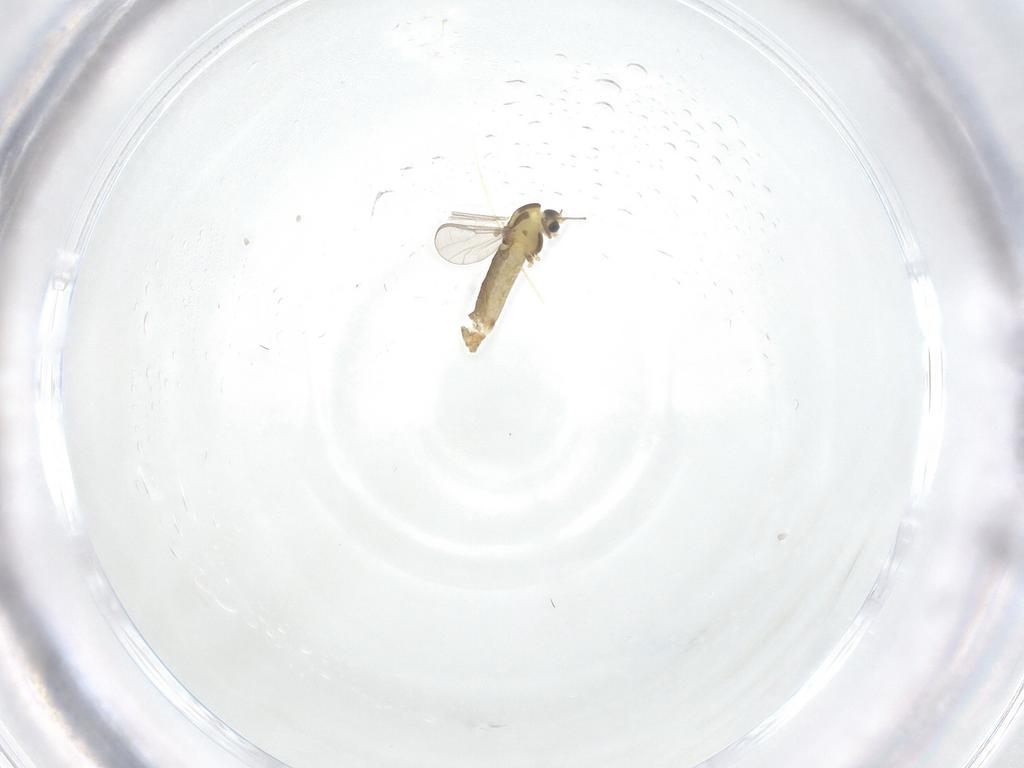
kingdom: Animalia
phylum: Arthropoda
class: Insecta
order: Diptera
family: Chironomidae
